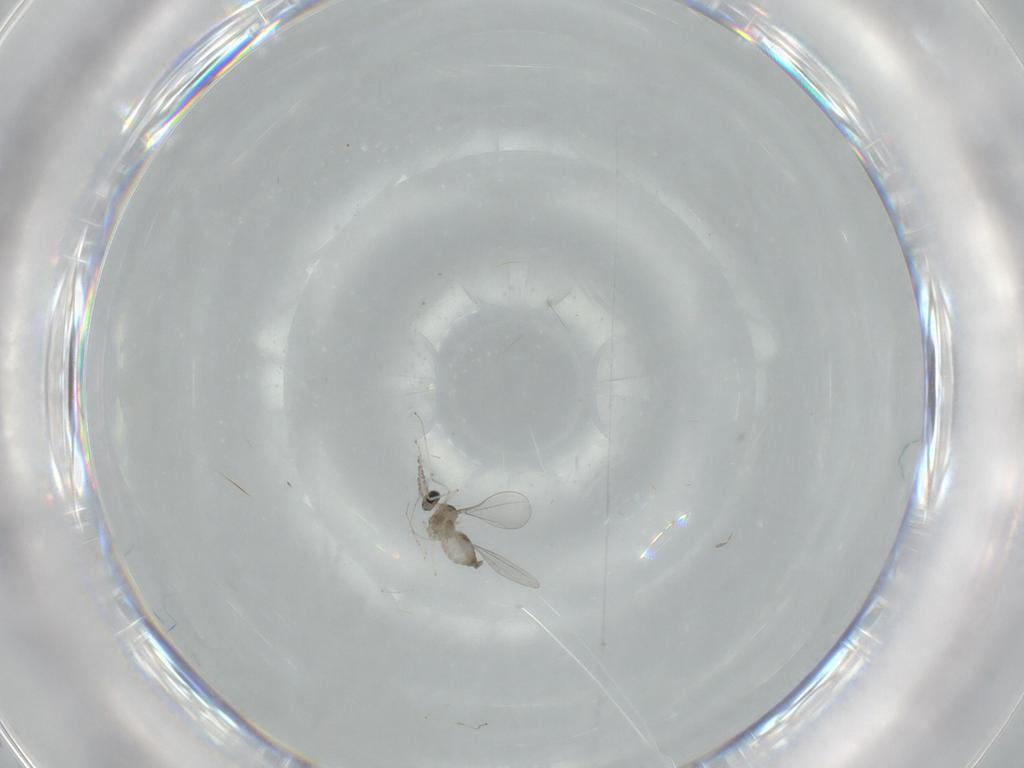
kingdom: Animalia
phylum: Arthropoda
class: Insecta
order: Diptera
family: Cecidomyiidae
